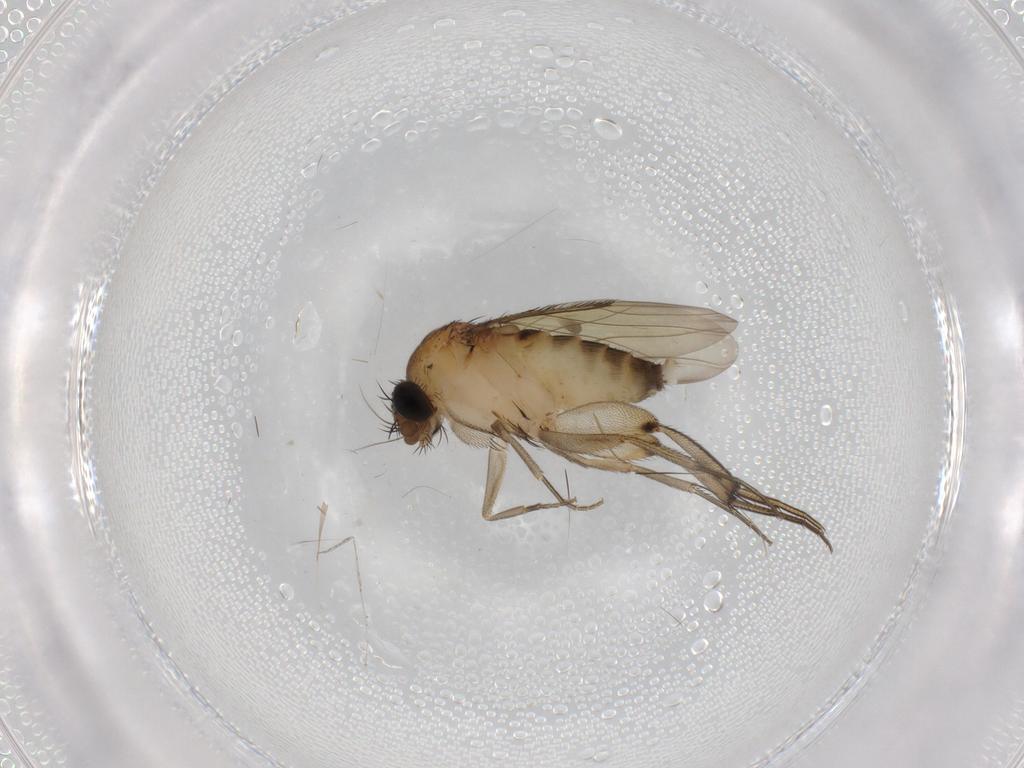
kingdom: Animalia
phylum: Arthropoda
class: Insecta
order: Diptera
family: Phoridae
